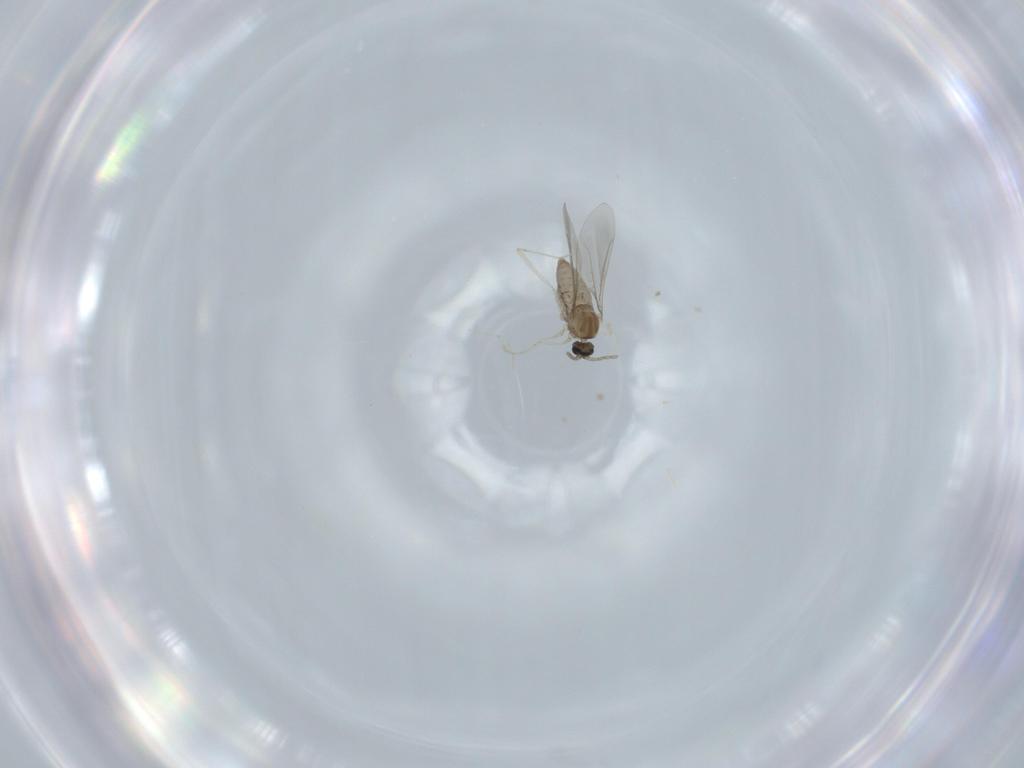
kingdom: Animalia
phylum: Arthropoda
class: Insecta
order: Diptera
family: Cecidomyiidae
